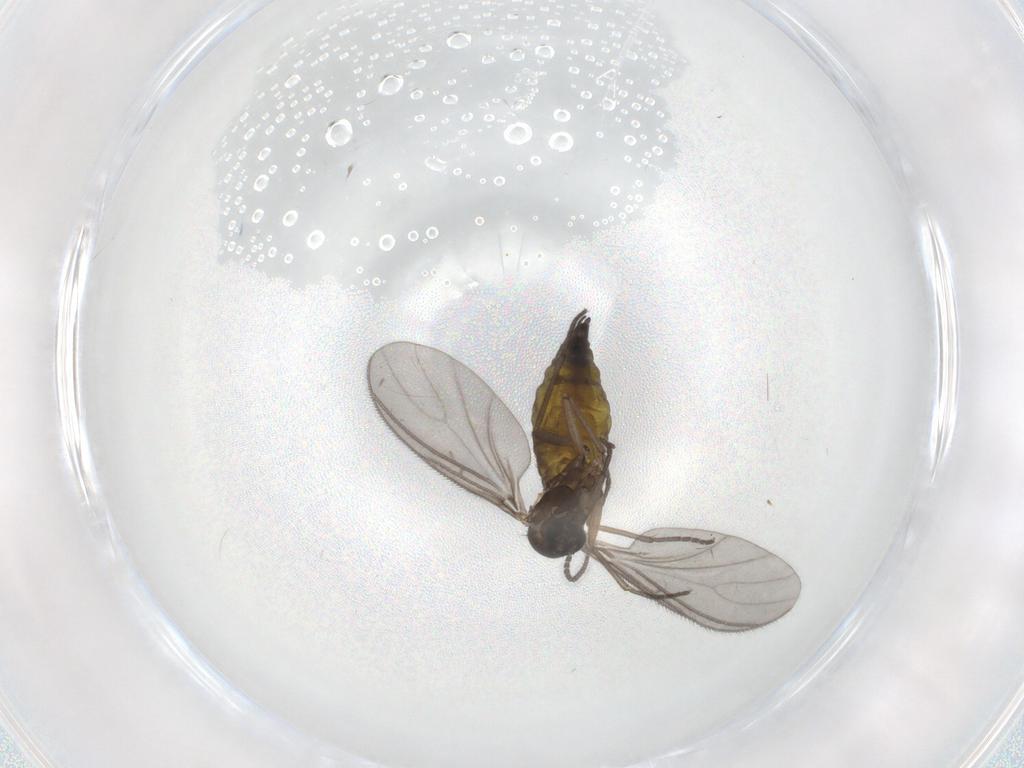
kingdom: Animalia
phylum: Arthropoda
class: Insecta
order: Diptera
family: Sciaridae
